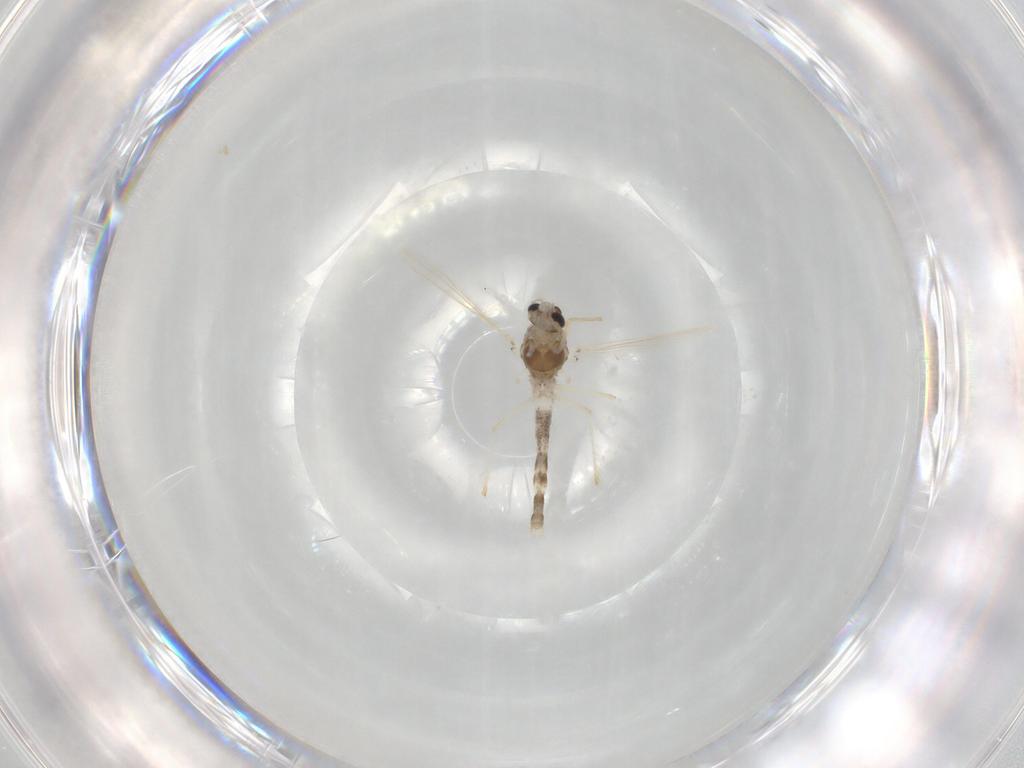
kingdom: Animalia
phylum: Arthropoda
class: Insecta
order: Diptera
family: Chironomidae
